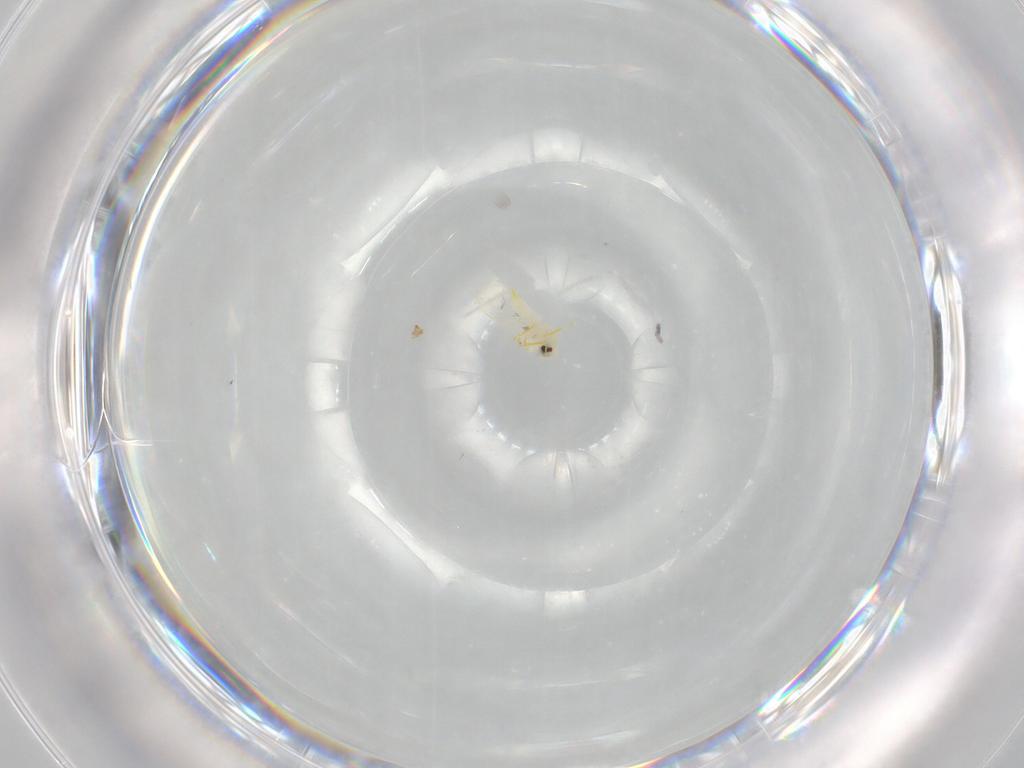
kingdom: Animalia
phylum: Arthropoda
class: Insecta
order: Hemiptera
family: Aleyrodidae
